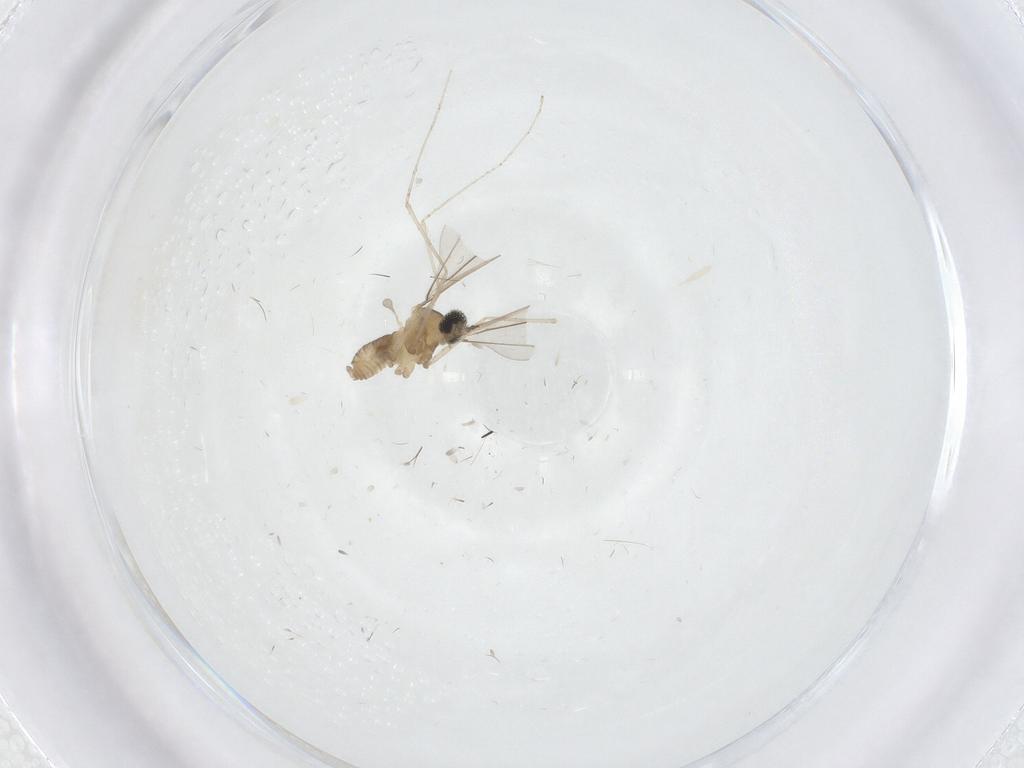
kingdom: Animalia
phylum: Arthropoda
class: Insecta
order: Diptera
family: Limoniidae
